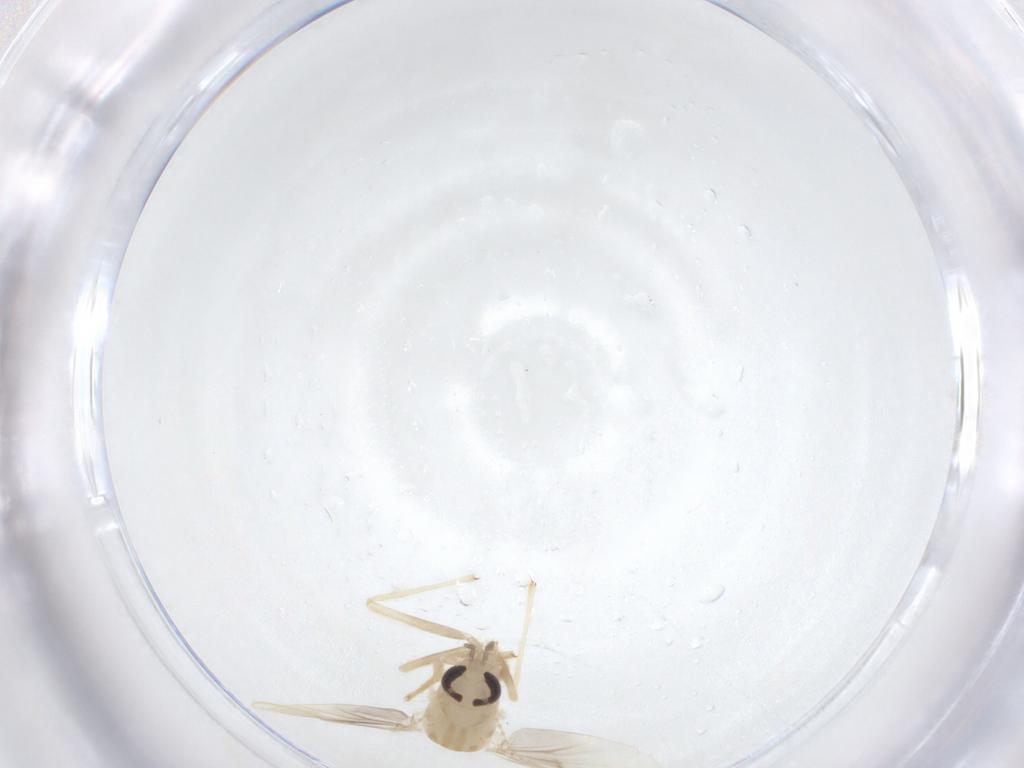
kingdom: Animalia
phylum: Arthropoda
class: Insecta
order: Diptera
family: Chironomidae
